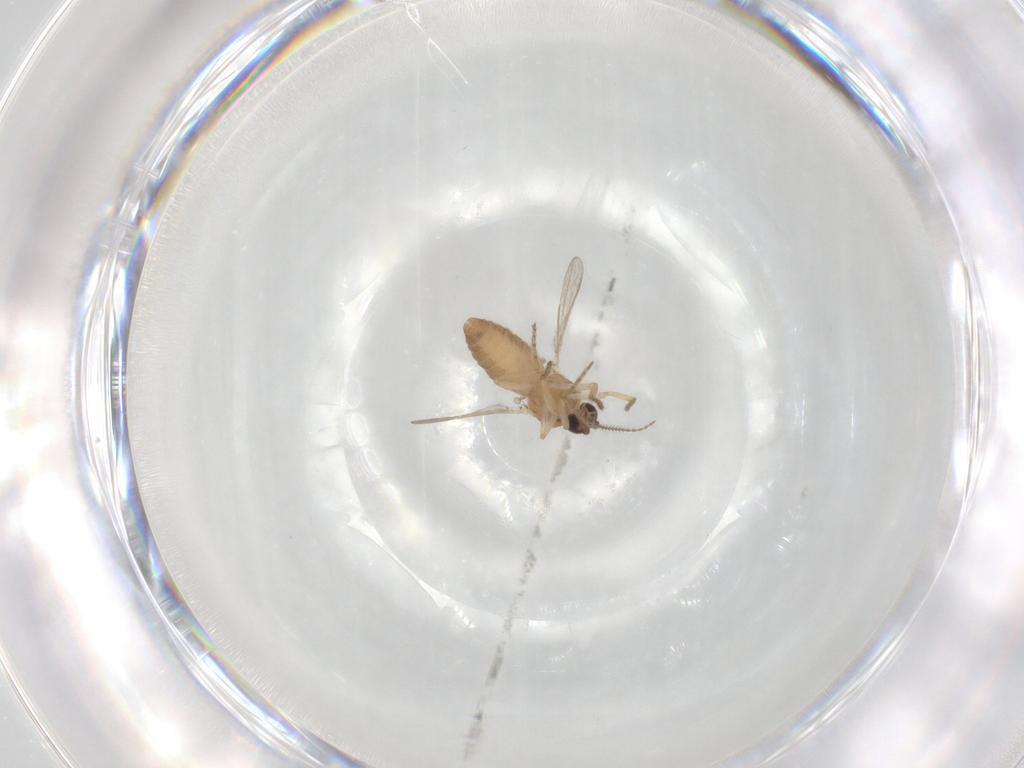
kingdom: Animalia
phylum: Arthropoda
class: Insecta
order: Diptera
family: Ceratopogonidae
